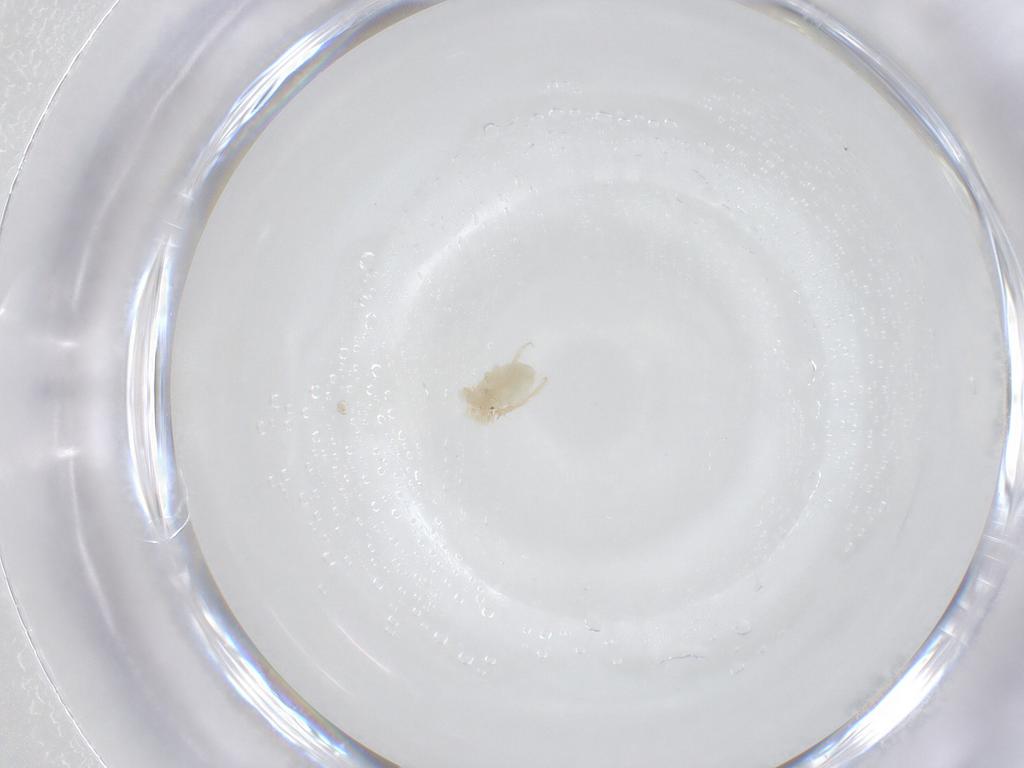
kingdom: Animalia
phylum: Arthropoda
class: Arachnida
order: Trombidiformes
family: Anystidae
